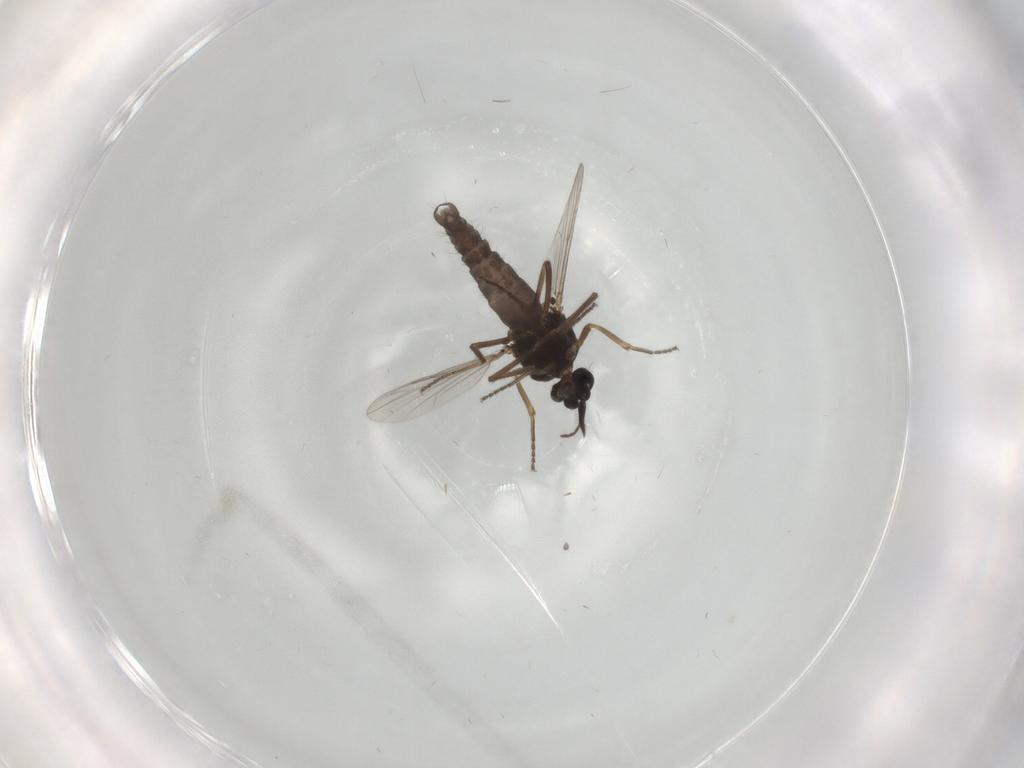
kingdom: Animalia
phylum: Arthropoda
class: Insecta
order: Diptera
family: Ceratopogonidae
